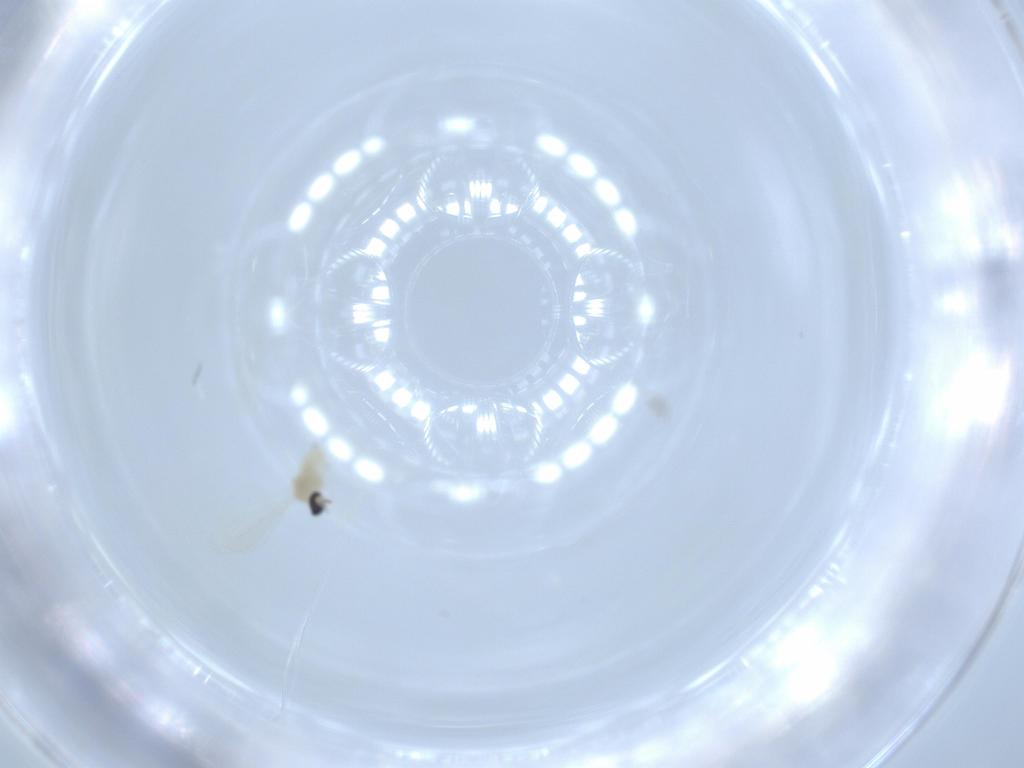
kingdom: Animalia
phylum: Arthropoda
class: Insecta
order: Diptera
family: Cecidomyiidae
